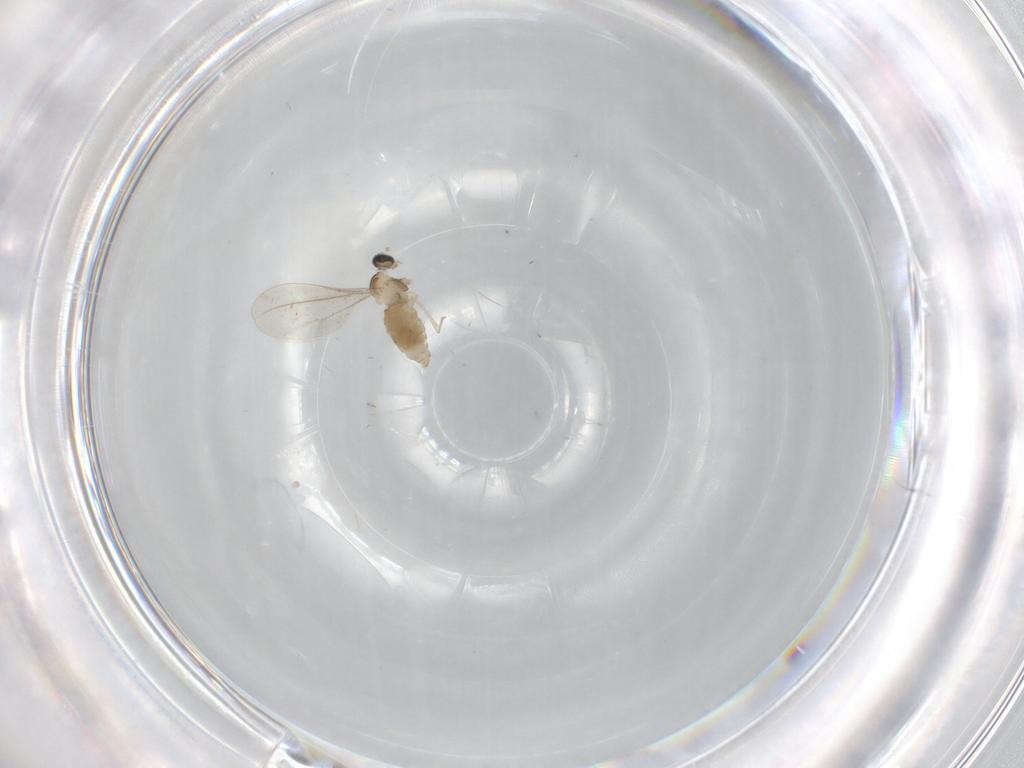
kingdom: Animalia
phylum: Arthropoda
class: Insecta
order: Diptera
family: Cecidomyiidae
